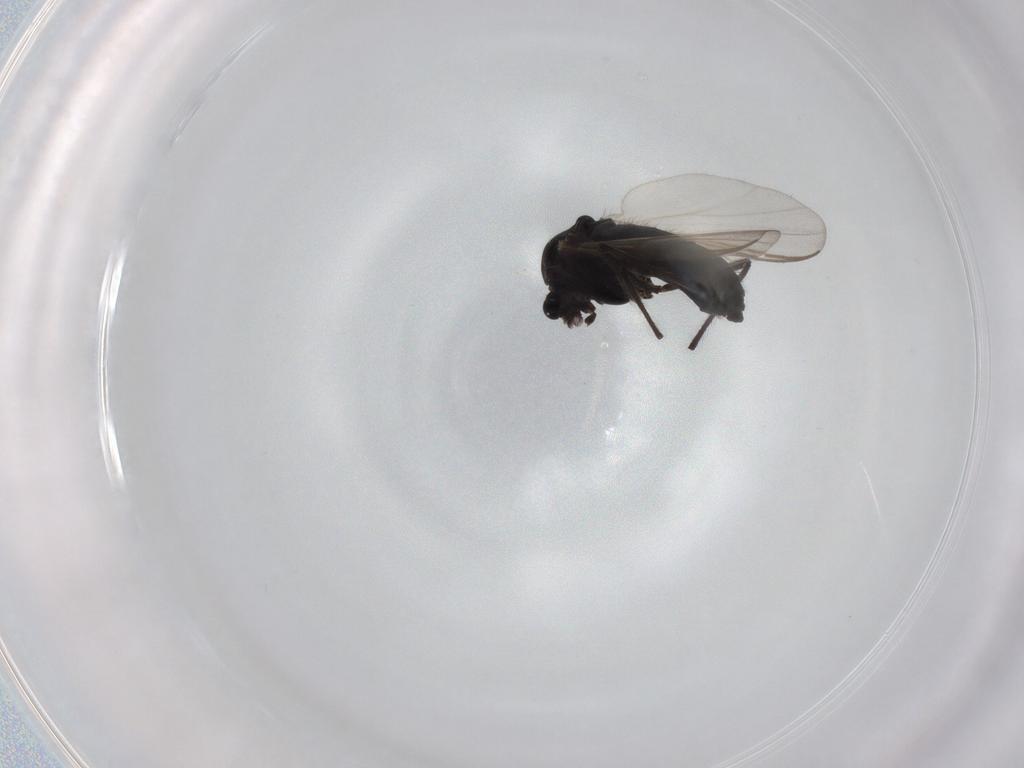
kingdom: Animalia
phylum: Arthropoda
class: Insecta
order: Diptera
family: Chironomidae
